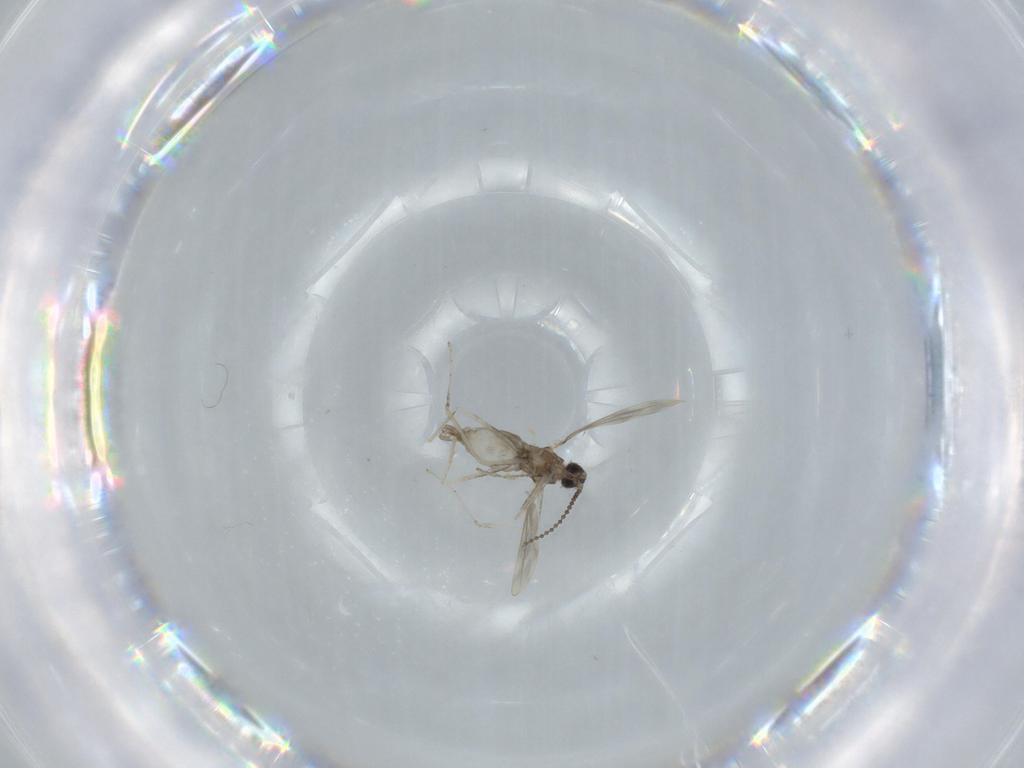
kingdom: Animalia
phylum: Arthropoda
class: Insecta
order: Diptera
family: Cecidomyiidae
